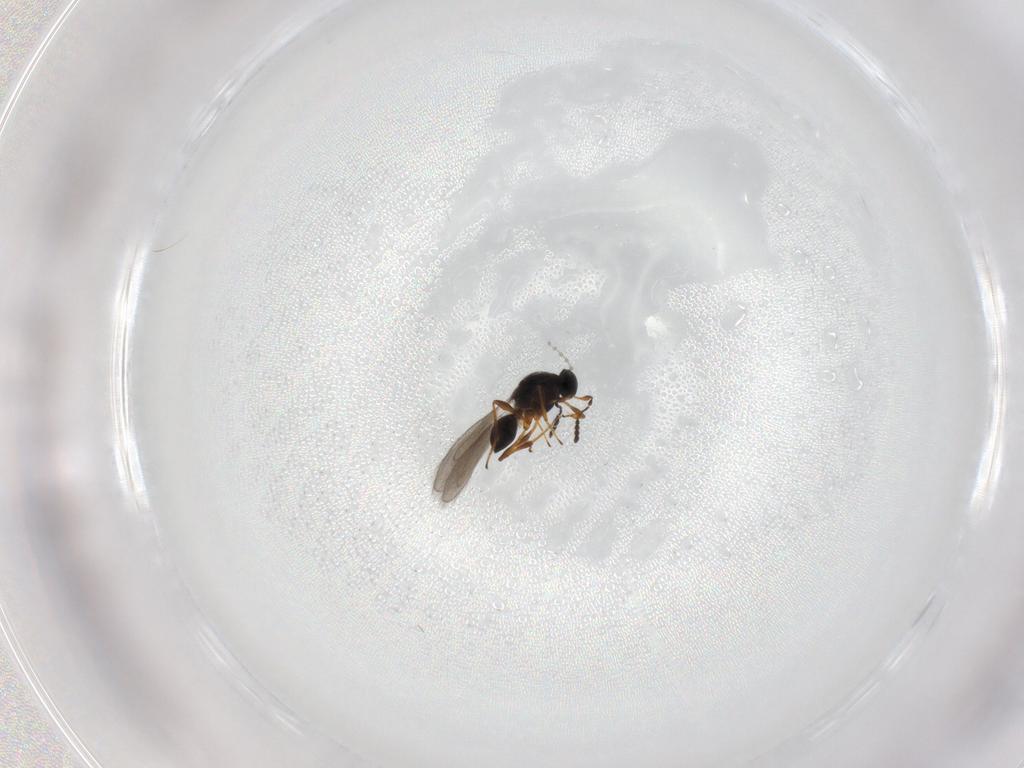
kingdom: Animalia
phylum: Arthropoda
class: Insecta
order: Hymenoptera
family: Platygastridae
